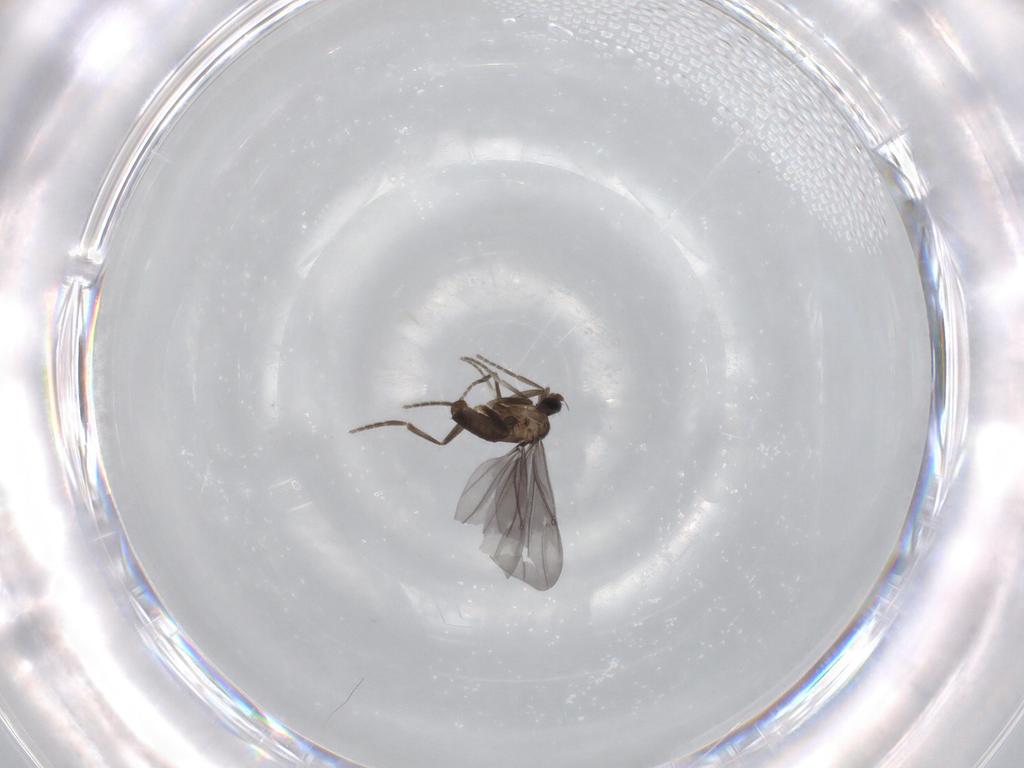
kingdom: Animalia
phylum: Arthropoda
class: Insecta
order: Diptera
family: Phoridae
